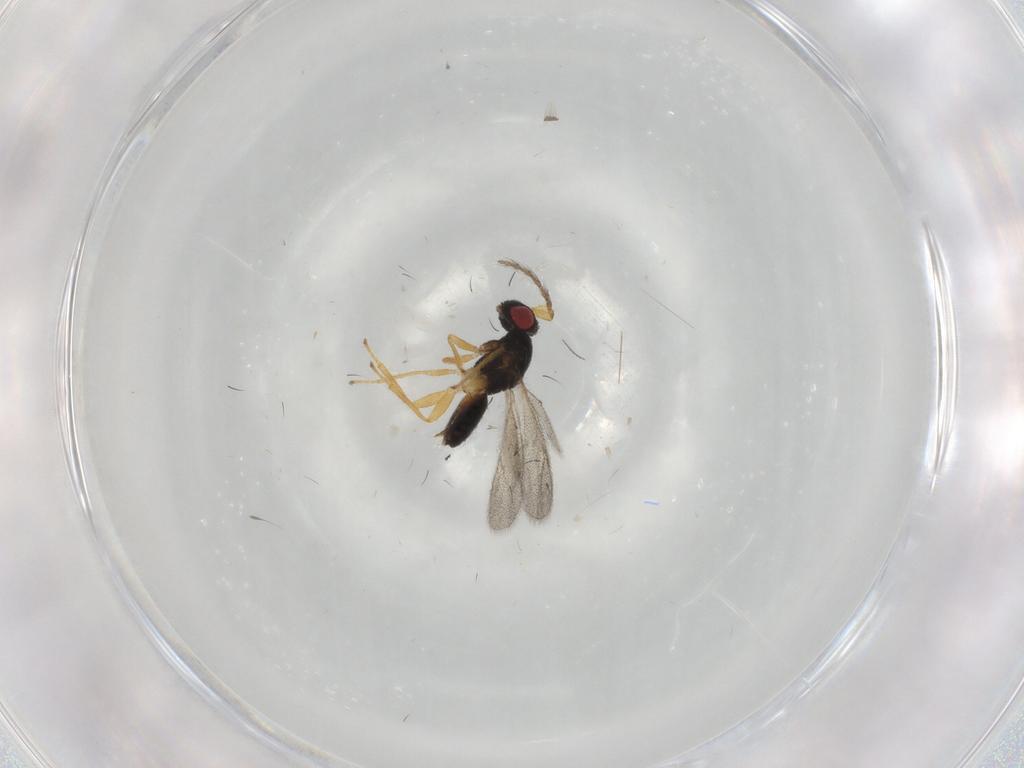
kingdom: Animalia
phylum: Arthropoda
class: Insecta
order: Hymenoptera
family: Eulophidae
